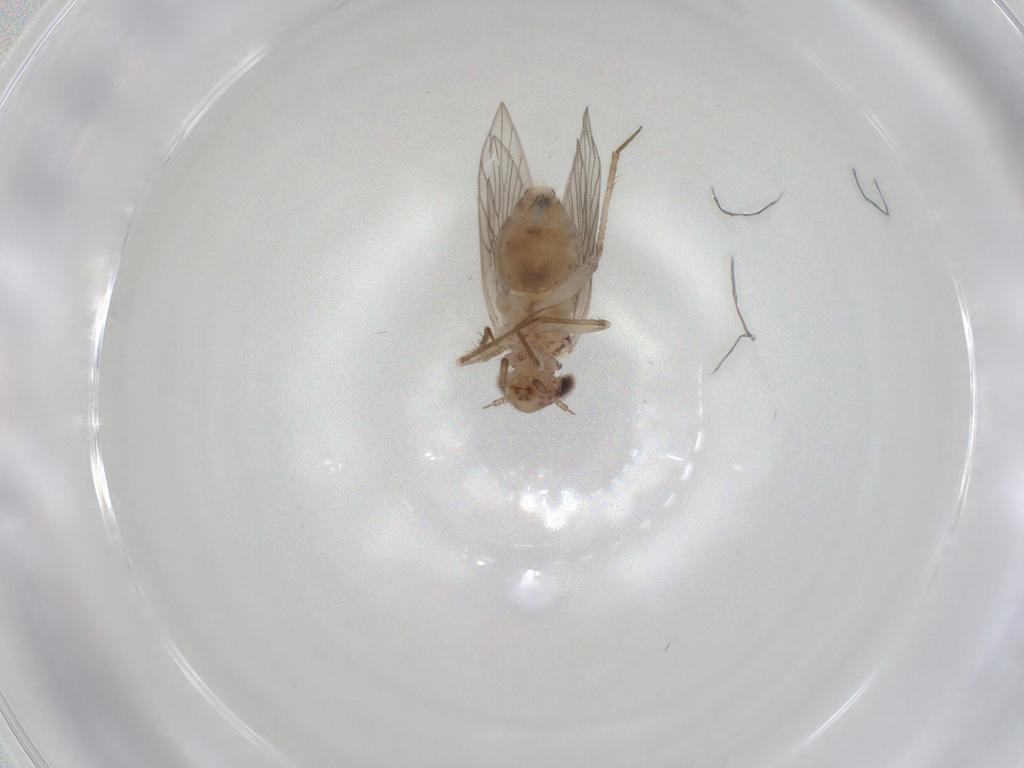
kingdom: Animalia
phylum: Arthropoda
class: Insecta
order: Psocodea
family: Lepidopsocidae
